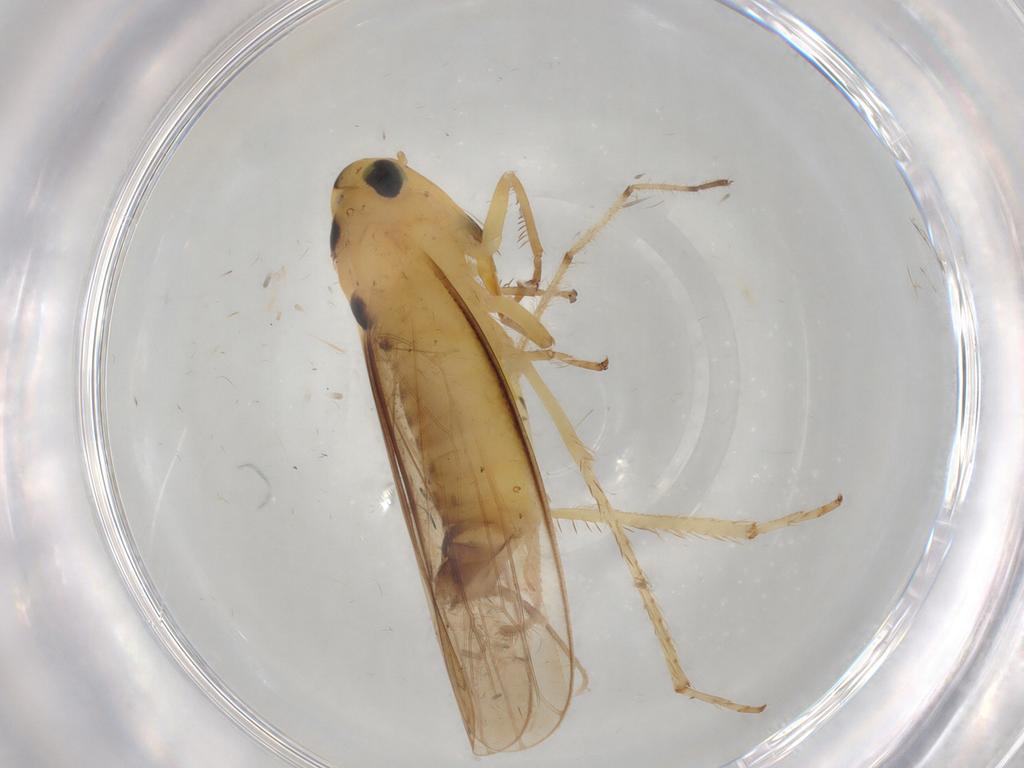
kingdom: Animalia
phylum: Arthropoda
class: Insecta
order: Hemiptera
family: Cicadellidae
